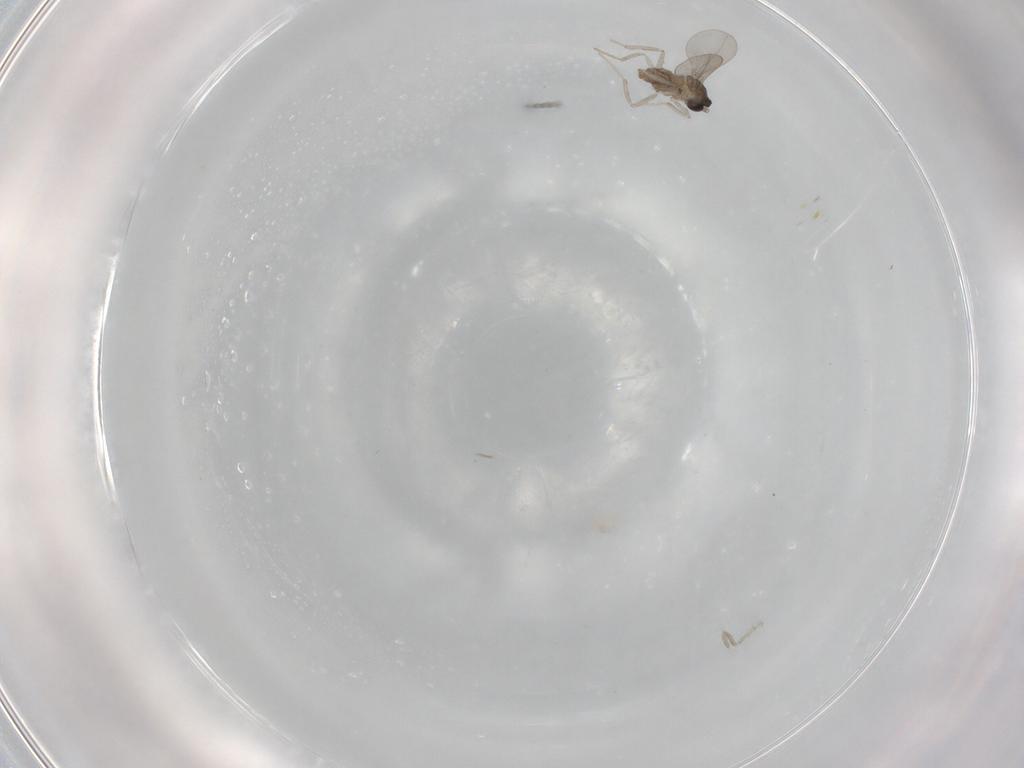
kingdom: Animalia
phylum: Arthropoda
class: Insecta
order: Diptera
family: Cecidomyiidae
